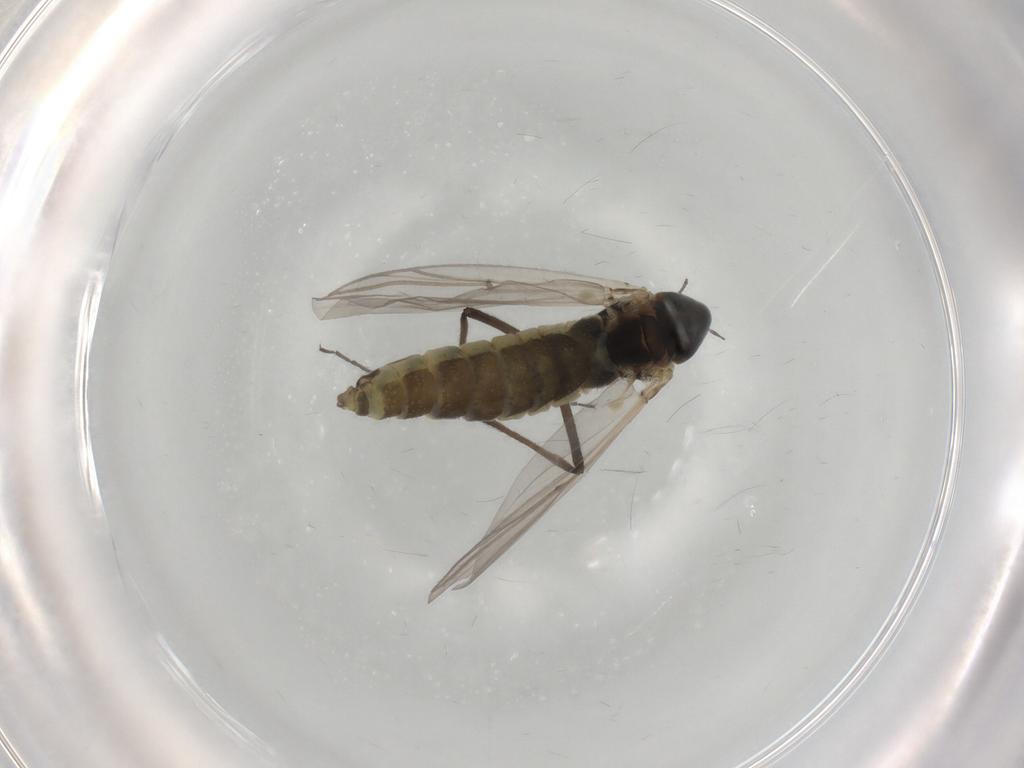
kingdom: Animalia
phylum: Arthropoda
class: Insecta
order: Diptera
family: Chironomidae
